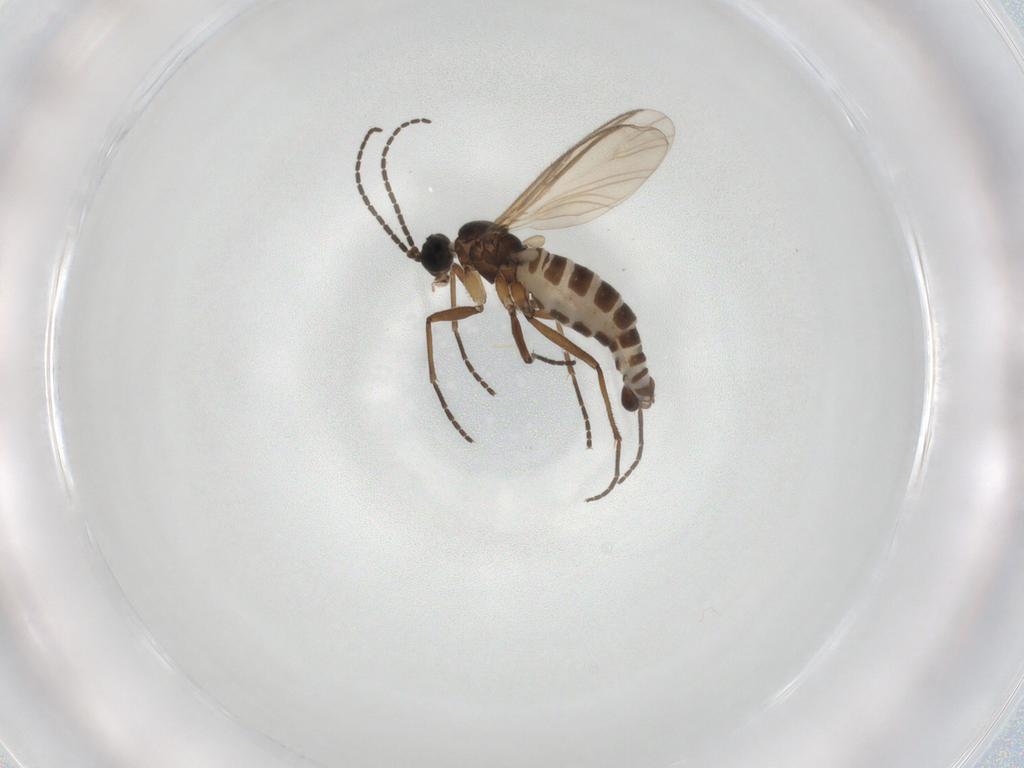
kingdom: Animalia
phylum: Arthropoda
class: Insecta
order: Diptera
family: Sciaridae
